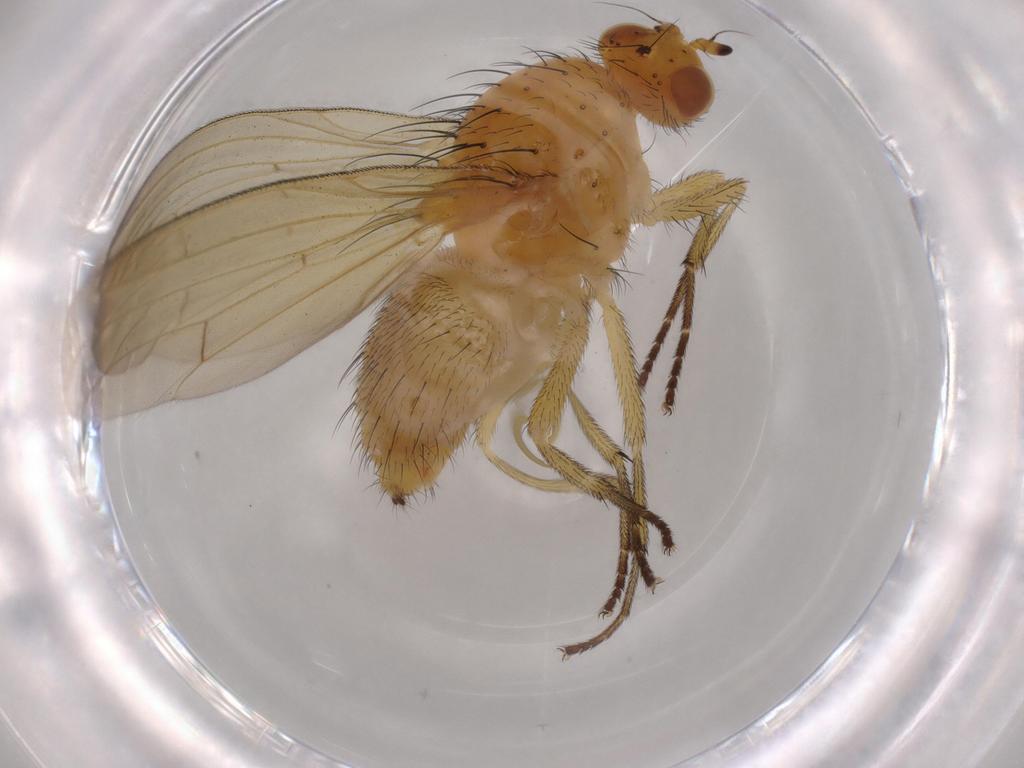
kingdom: Animalia
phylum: Arthropoda
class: Insecta
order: Diptera
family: Lauxaniidae
